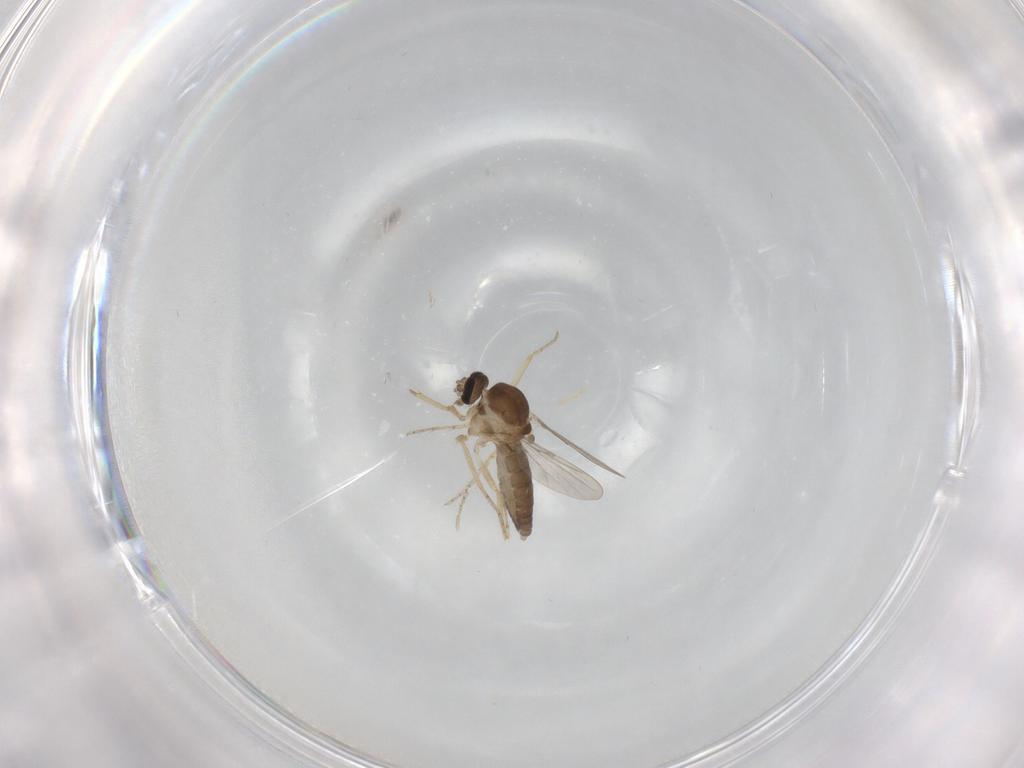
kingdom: Animalia
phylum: Arthropoda
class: Insecta
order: Diptera
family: Ceratopogonidae
